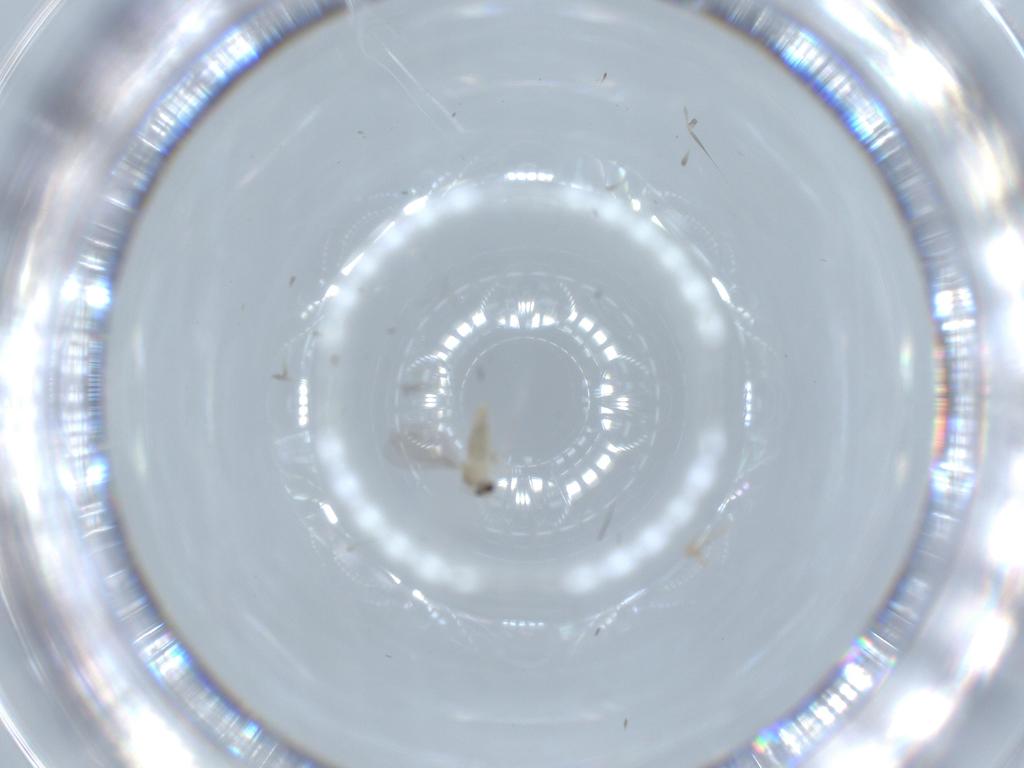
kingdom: Animalia
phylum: Arthropoda
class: Insecta
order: Diptera
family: Cecidomyiidae
